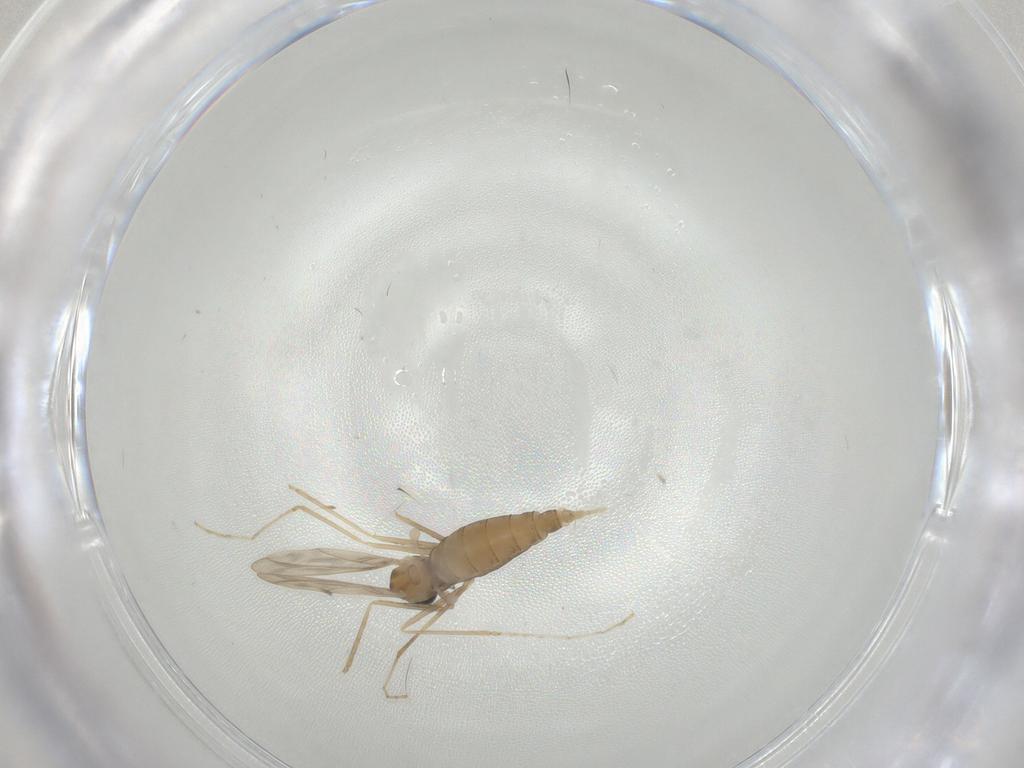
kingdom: Animalia
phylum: Arthropoda
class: Insecta
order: Diptera
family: Cecidomyiidae
